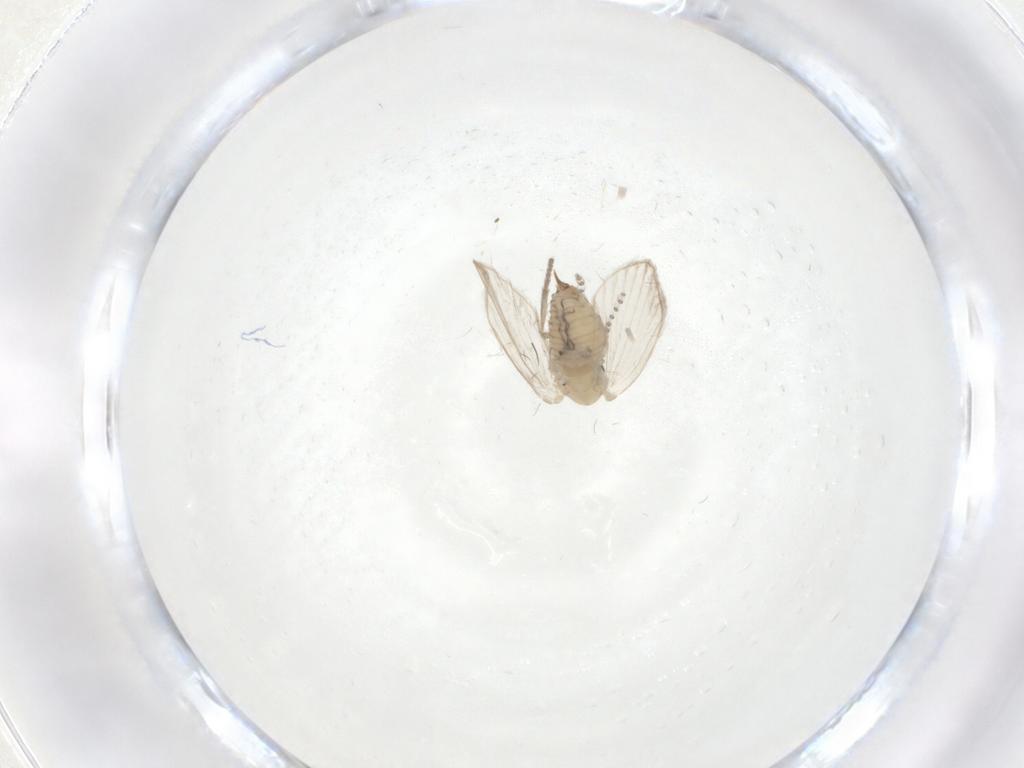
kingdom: Animalia
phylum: Arthropoda
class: Insecta
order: Diptera
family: Psychodidae
